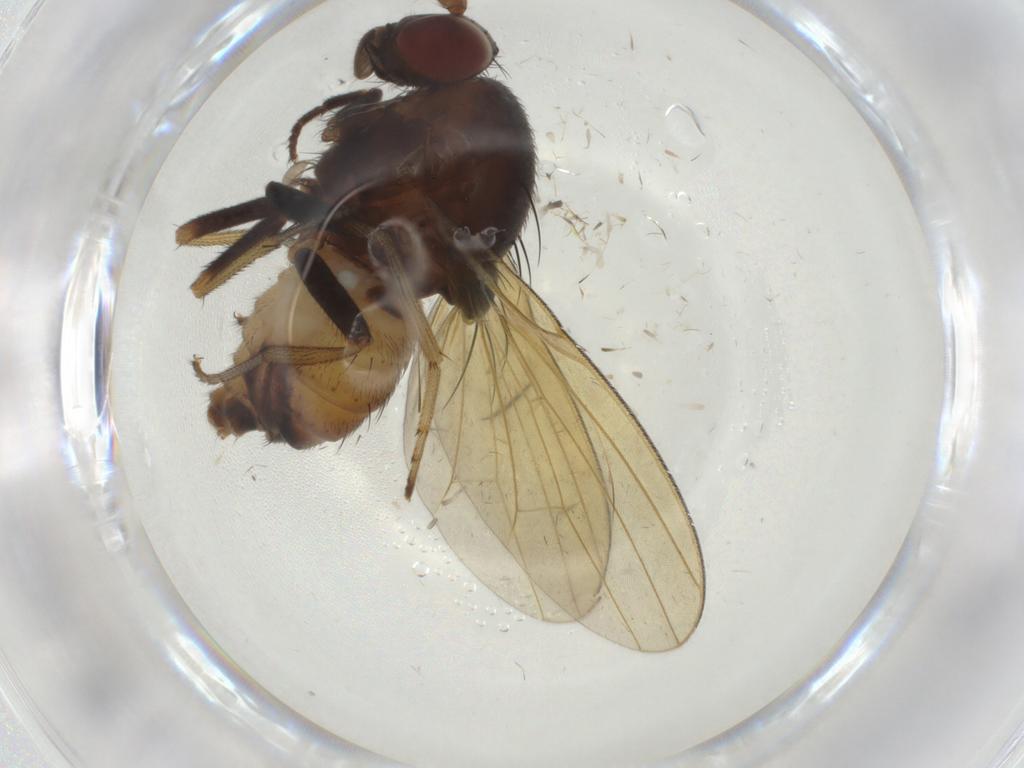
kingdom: Animalia
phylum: Arthropoda
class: Insecta
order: Diptera
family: Dolichopodidae
